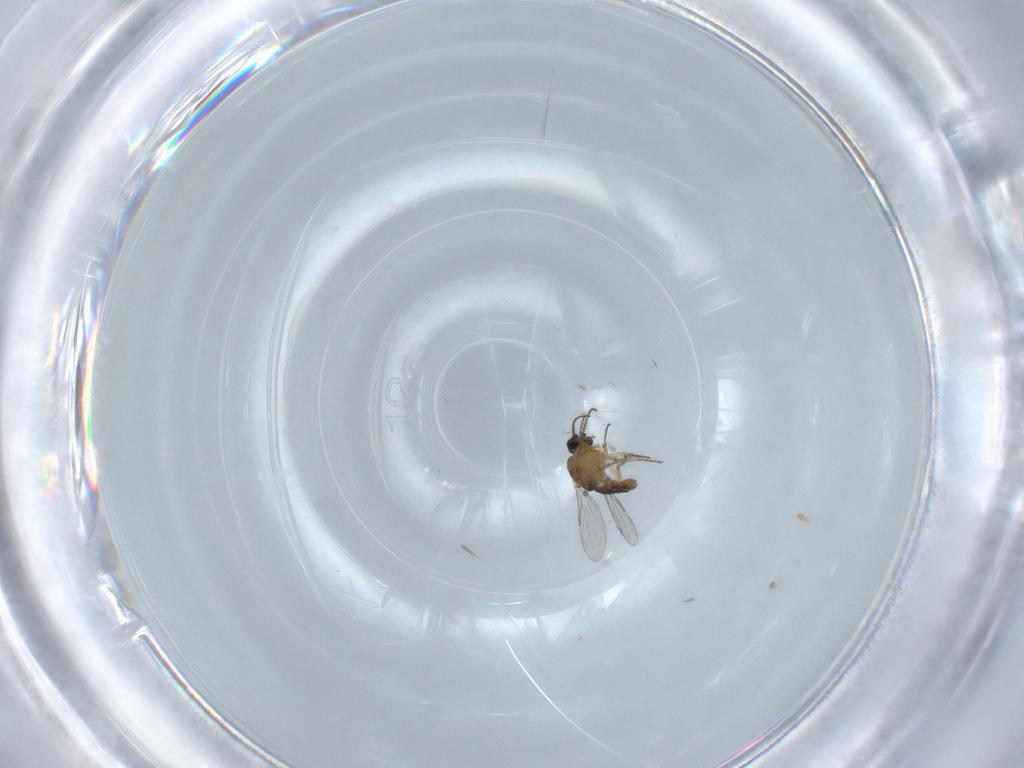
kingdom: Animalia
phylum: Arthropoda
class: Insecta
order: Diptera
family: Ceratopogonidae
